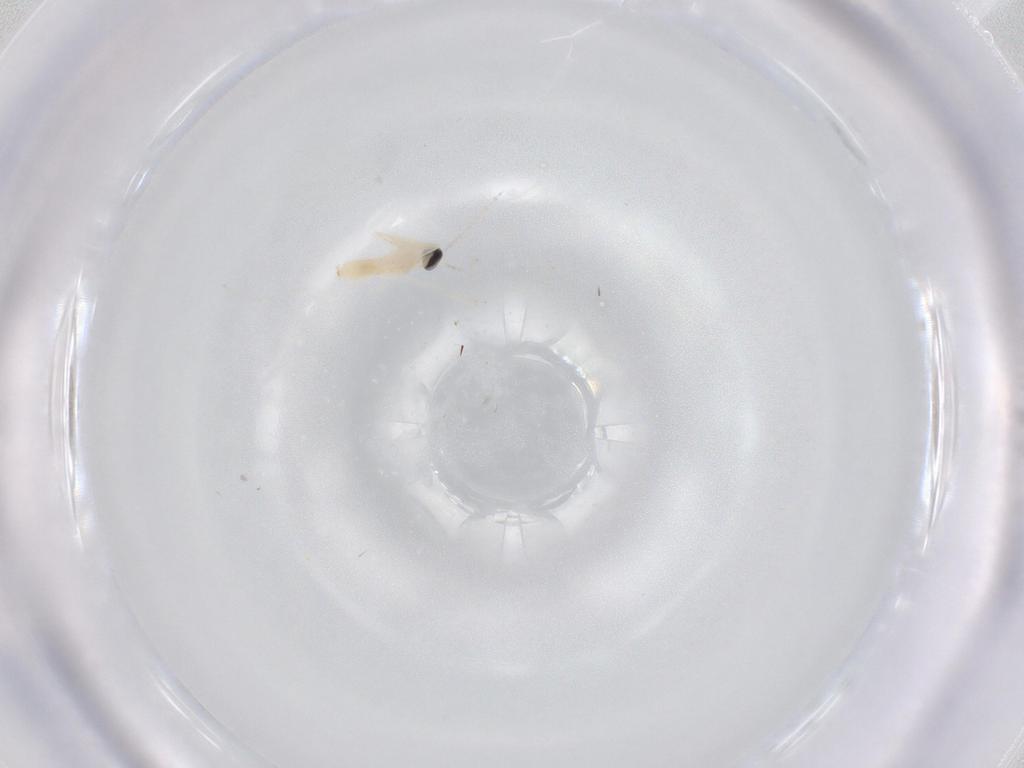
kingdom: Animalia
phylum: Arthropoda
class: Insecta
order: Diptera
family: Cecidomyiidae
